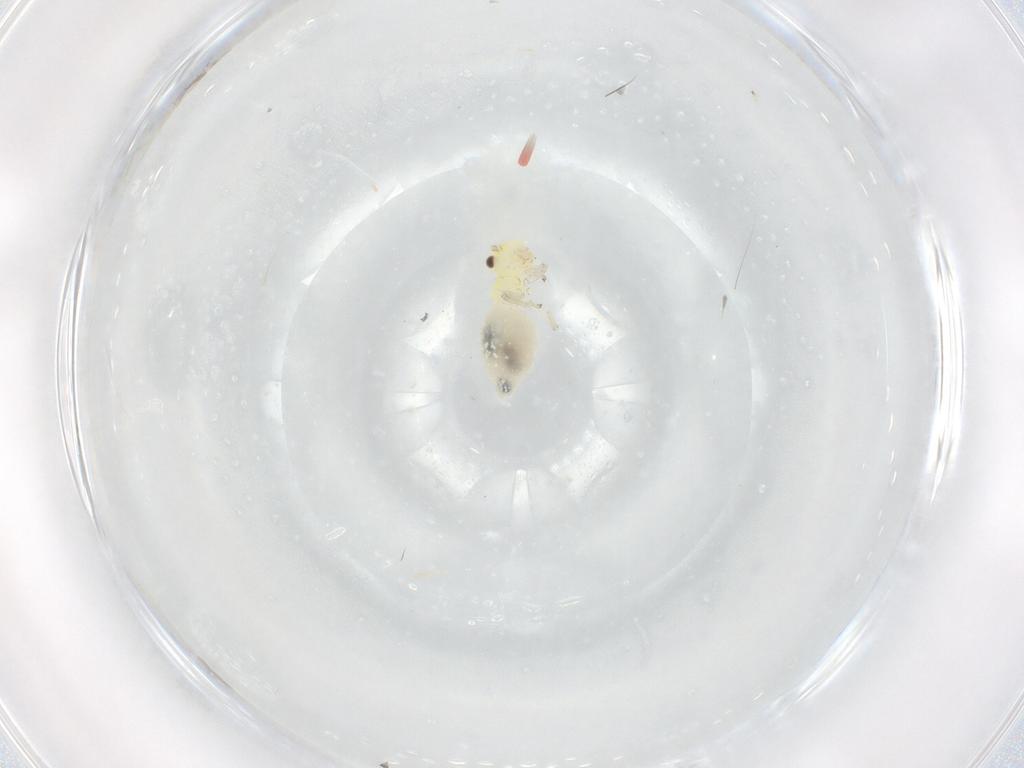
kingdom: Animalia
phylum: Arthropoda
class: Insecta
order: Psocodea
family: Caeciliusidae
